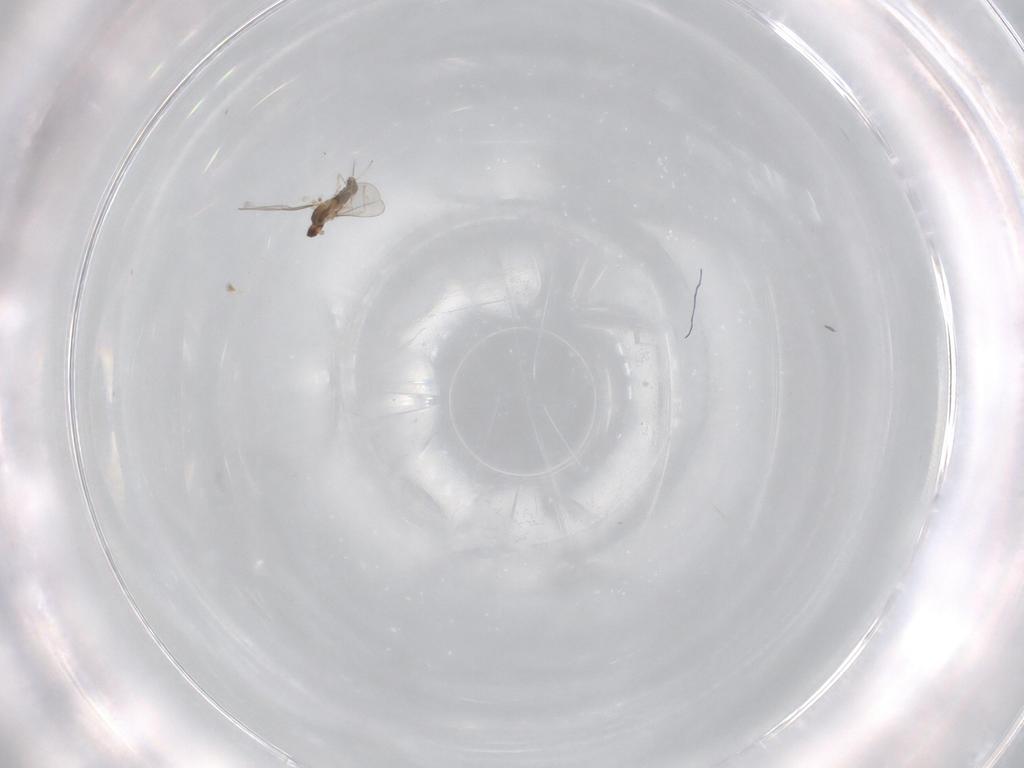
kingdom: Animalia
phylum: Arthropoda
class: Insecta
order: Diptera
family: Cecidomyiidae
